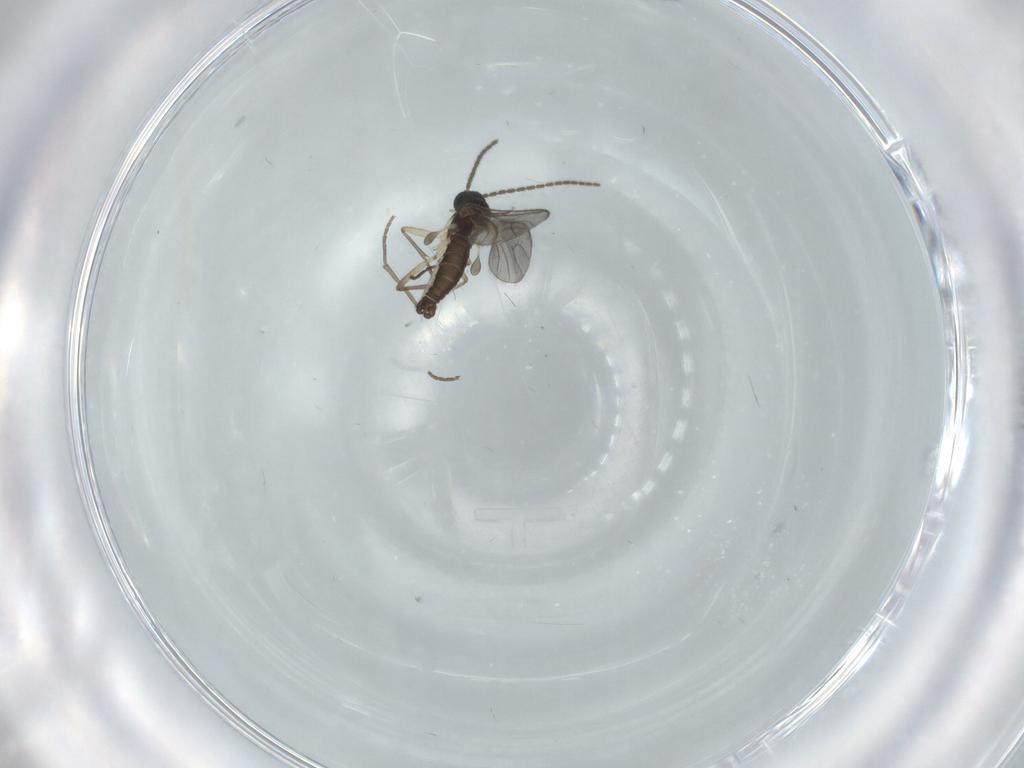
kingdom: Animalia
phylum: Arthropoda
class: Insecta
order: Diptera
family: Sciaridae
